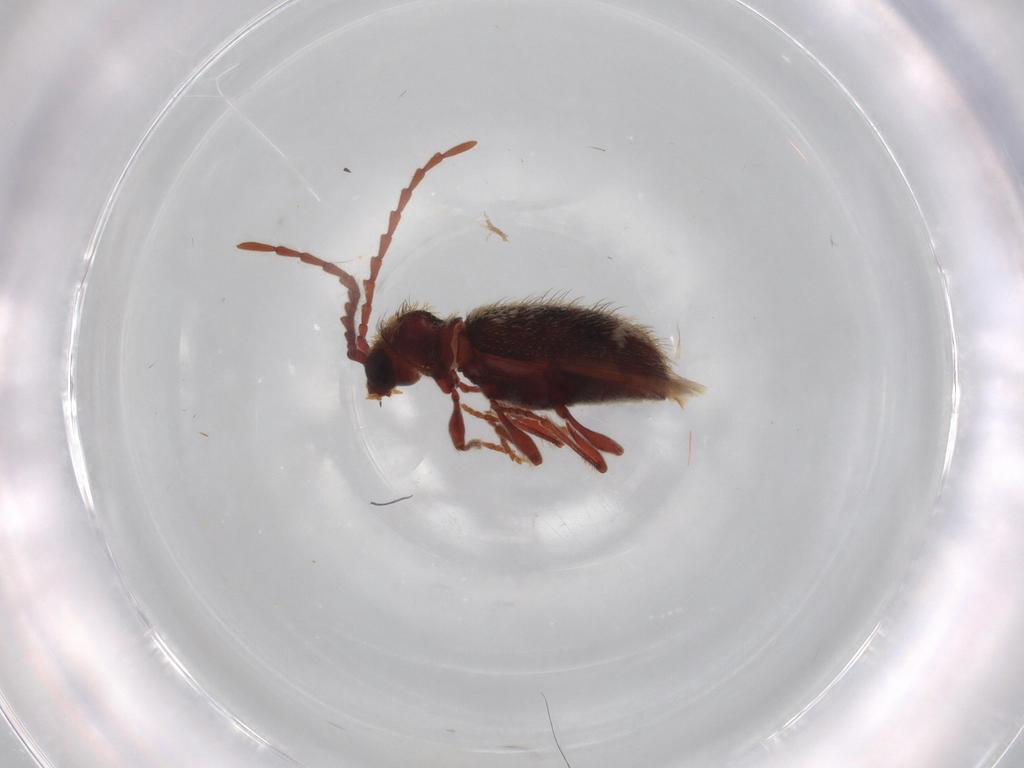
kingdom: Animalia
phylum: Arthropoda
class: Insecta
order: Coleoptera
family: Ptinidae
